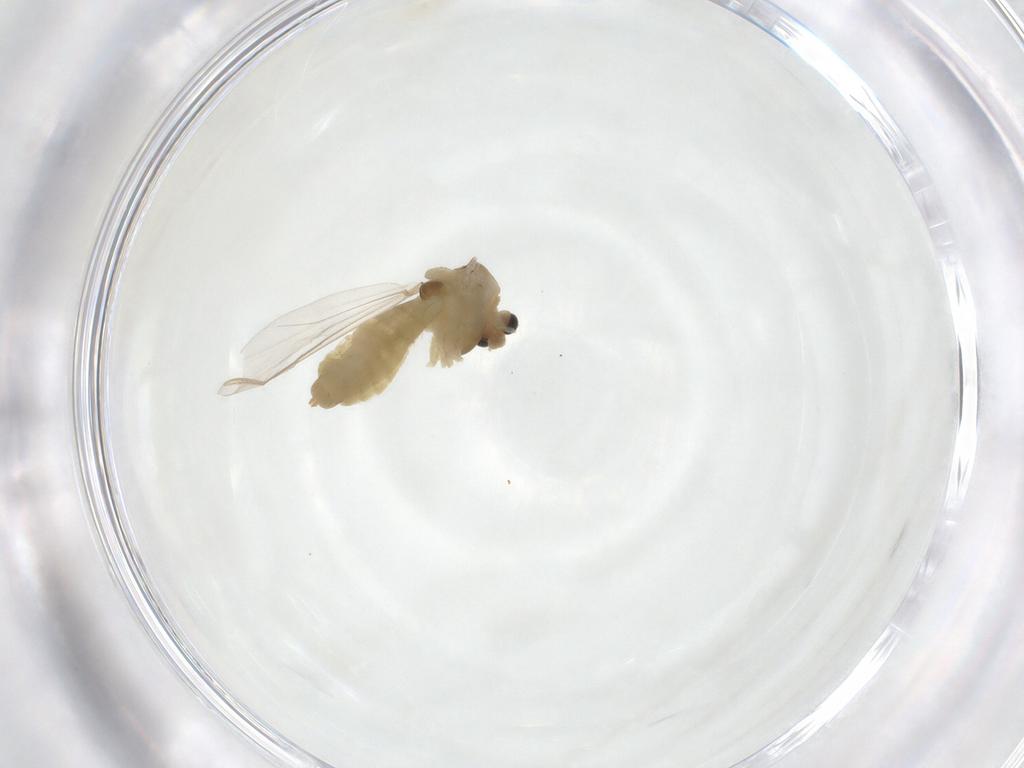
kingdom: Animalia
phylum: Arthropoda
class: Insecta
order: Diptera
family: Chironomidae
